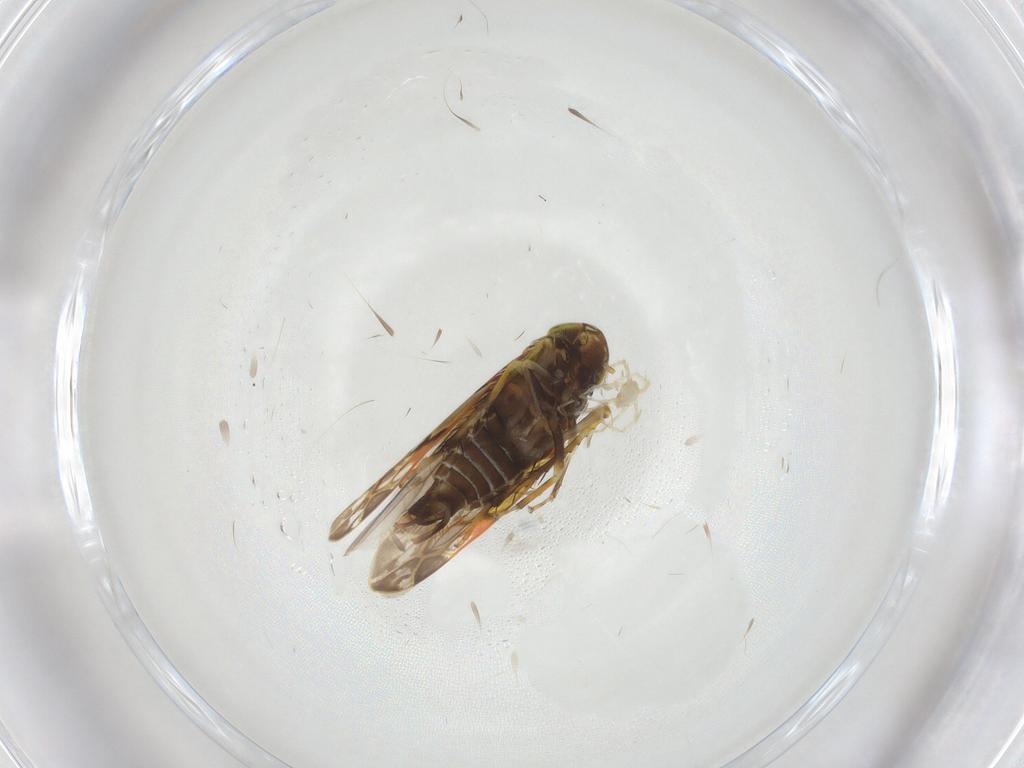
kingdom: Animalia
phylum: Arthropoda
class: Insecta
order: Hemiptera
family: Cicadellidae
